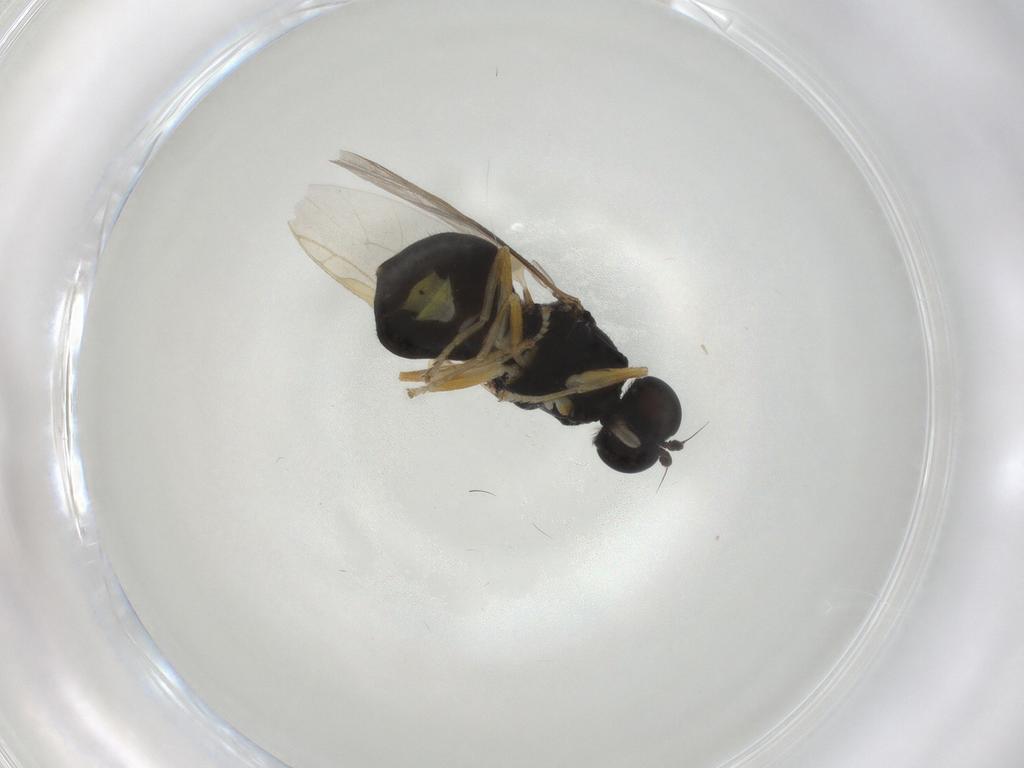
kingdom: Animalia
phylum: Arthropoda
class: Insecta
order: Diptera
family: Stratiomyidae
